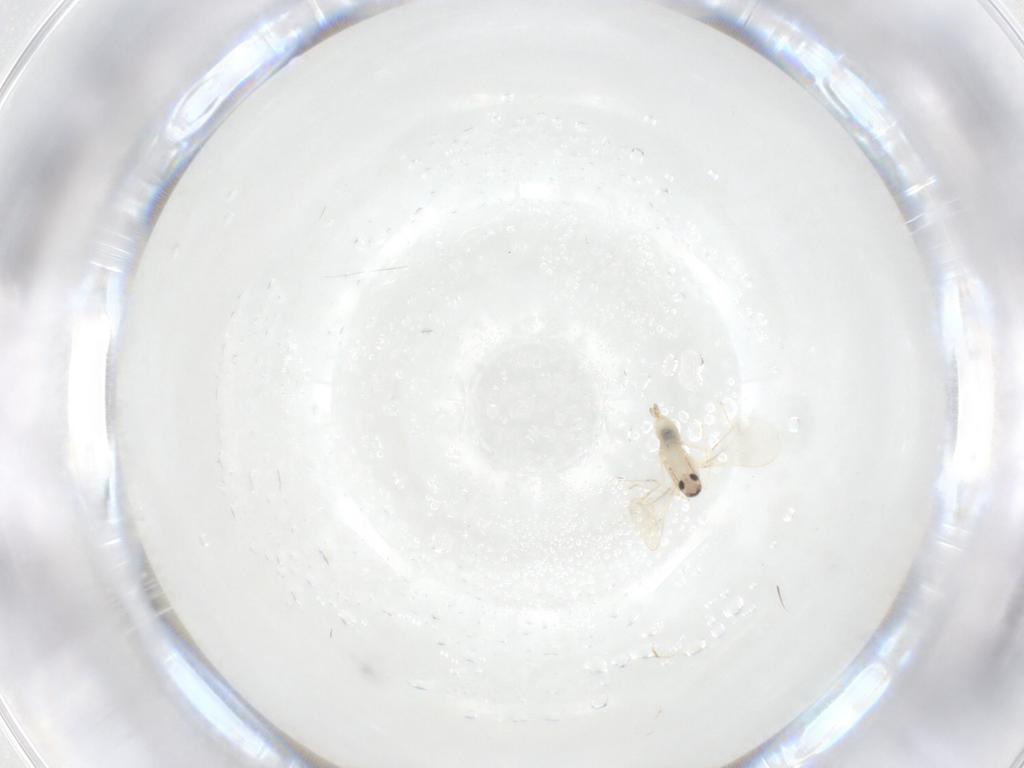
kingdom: Animalia
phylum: Arthropoda
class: Insecta
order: Diptera
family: Cecidomyiidae
